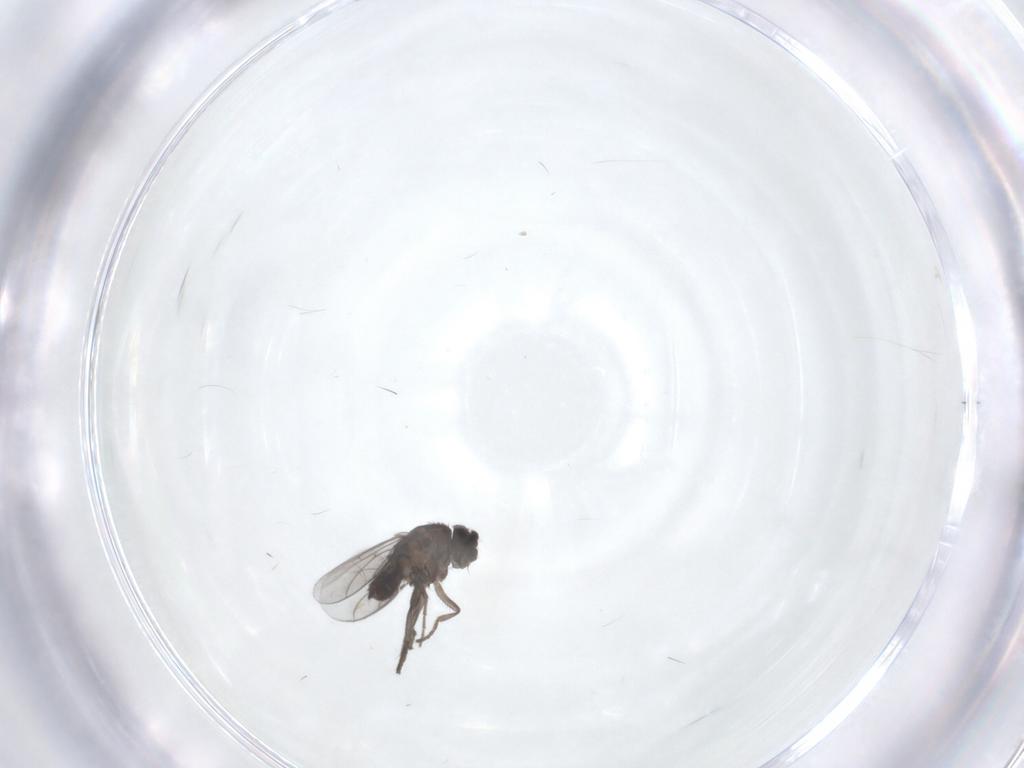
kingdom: Animalia
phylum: Arthropoda
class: Insecta
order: Diptera
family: Sphaeroceridae
